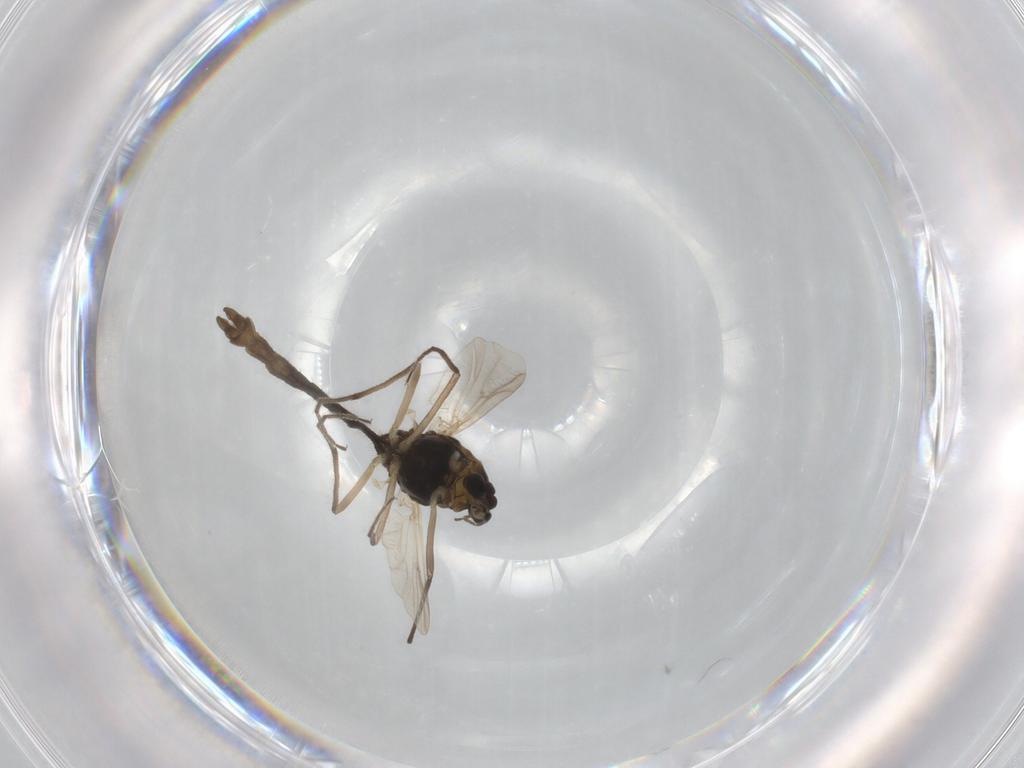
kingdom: Animalia
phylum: Arthropoda
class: Insecta
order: Diptera
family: Chironomidae
